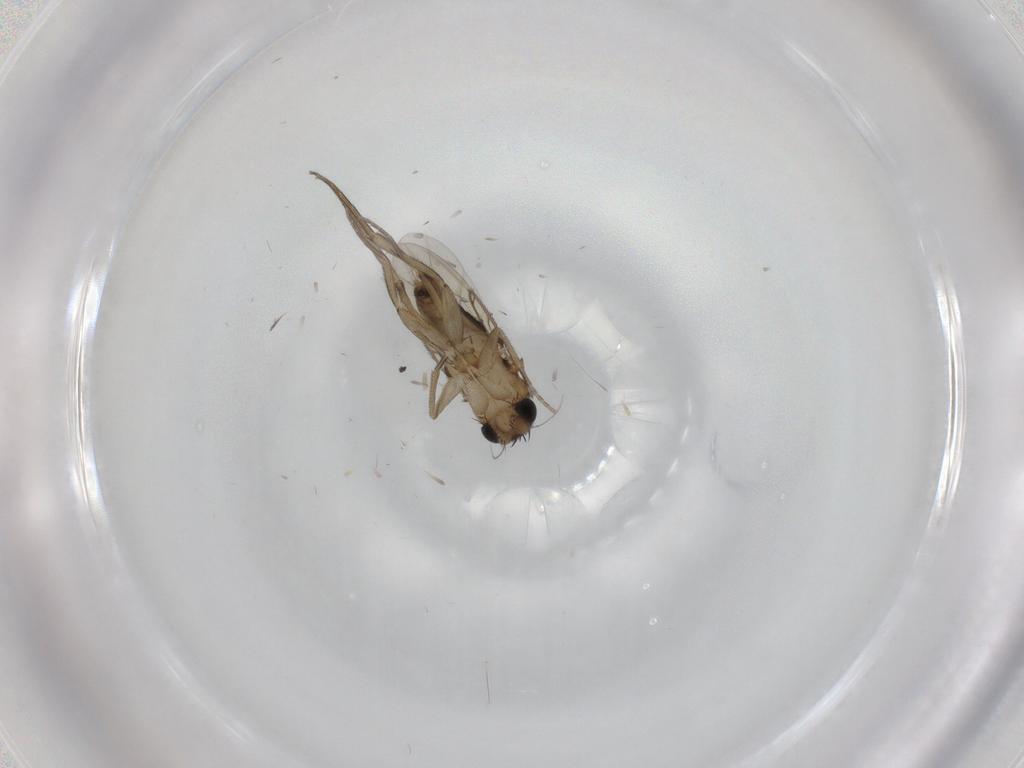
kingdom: Animalia
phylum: Arthropoda
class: Insecta
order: Diptera
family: Phoridae
